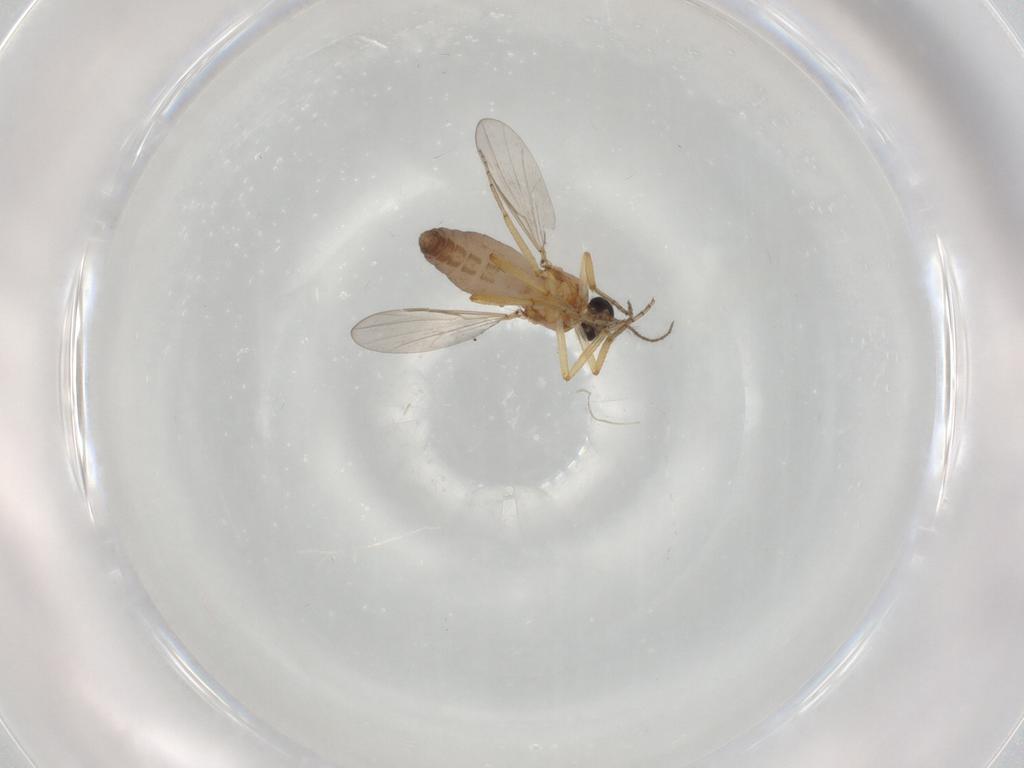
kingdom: Animalia
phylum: Arthropoda
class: Insecta
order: Diptera
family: Ceratopogonidae
